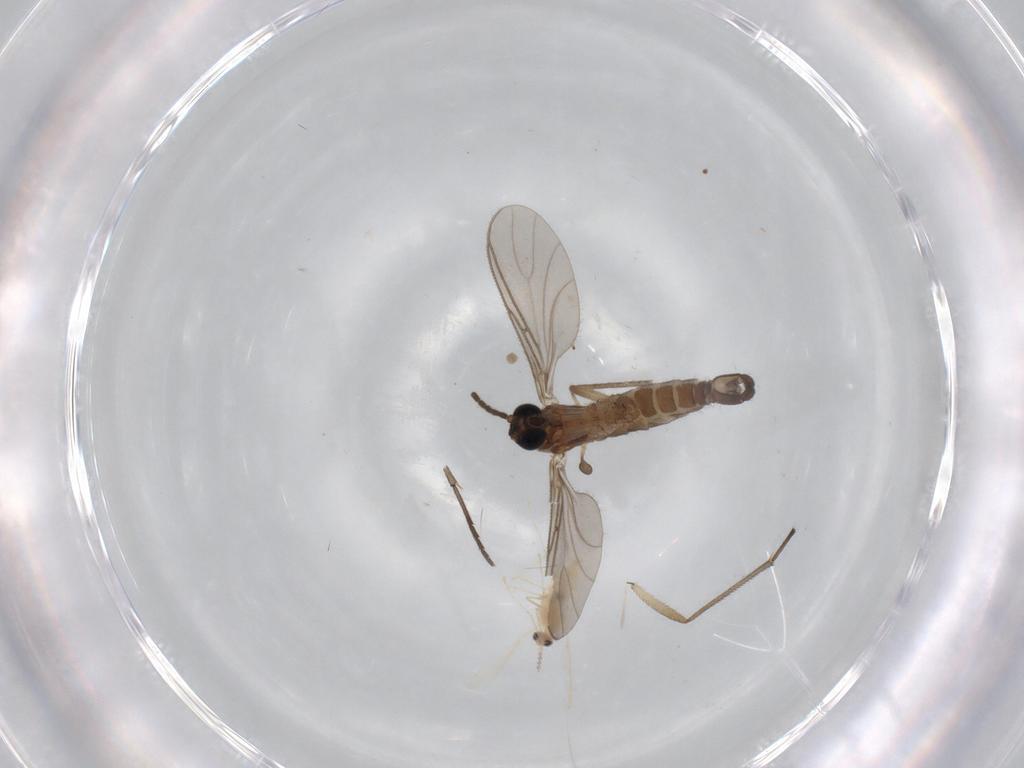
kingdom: Animalia
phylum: Arthropoda
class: Insecta
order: Diptera
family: Cecidomyiidae
